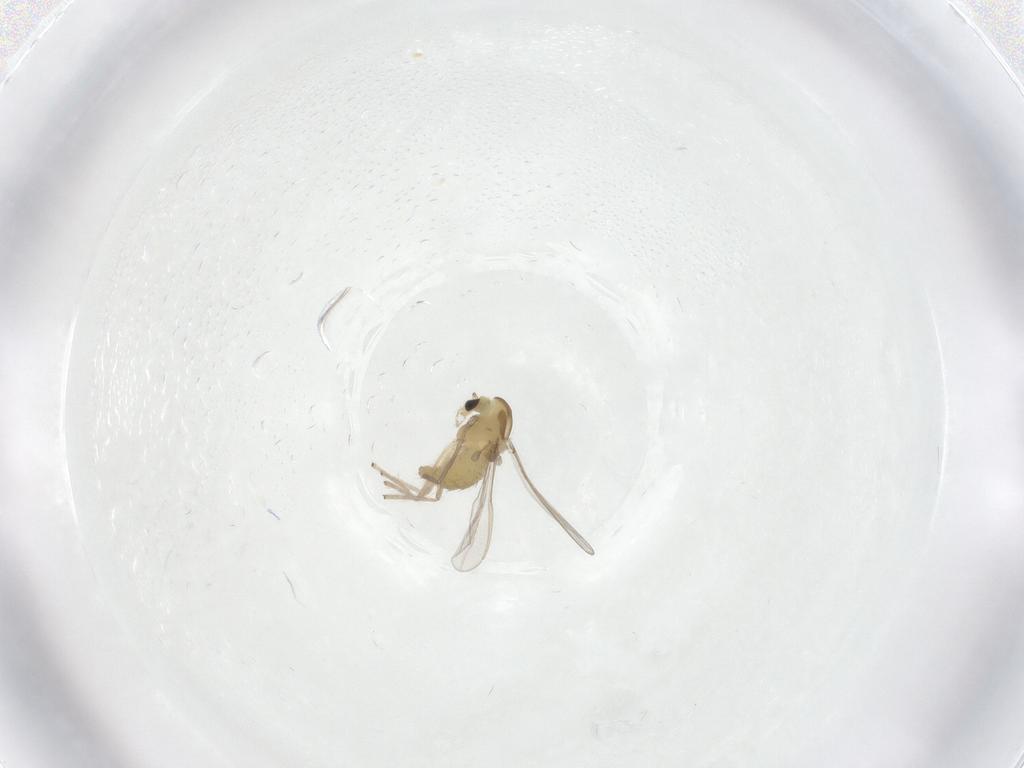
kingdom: Animalia
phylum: Arthropoda
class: Insecta
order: Diptera
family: Chironomidae
